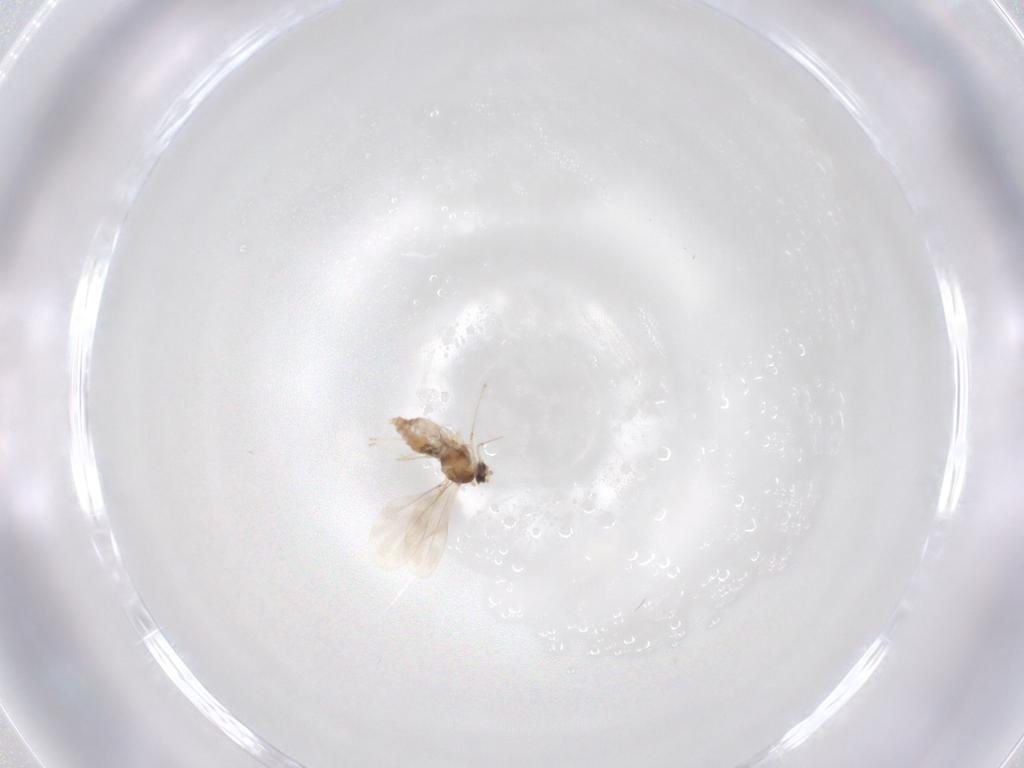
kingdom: Animalia
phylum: Arthropoda
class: Insecta
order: Diptera
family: Cecidomyiidae
